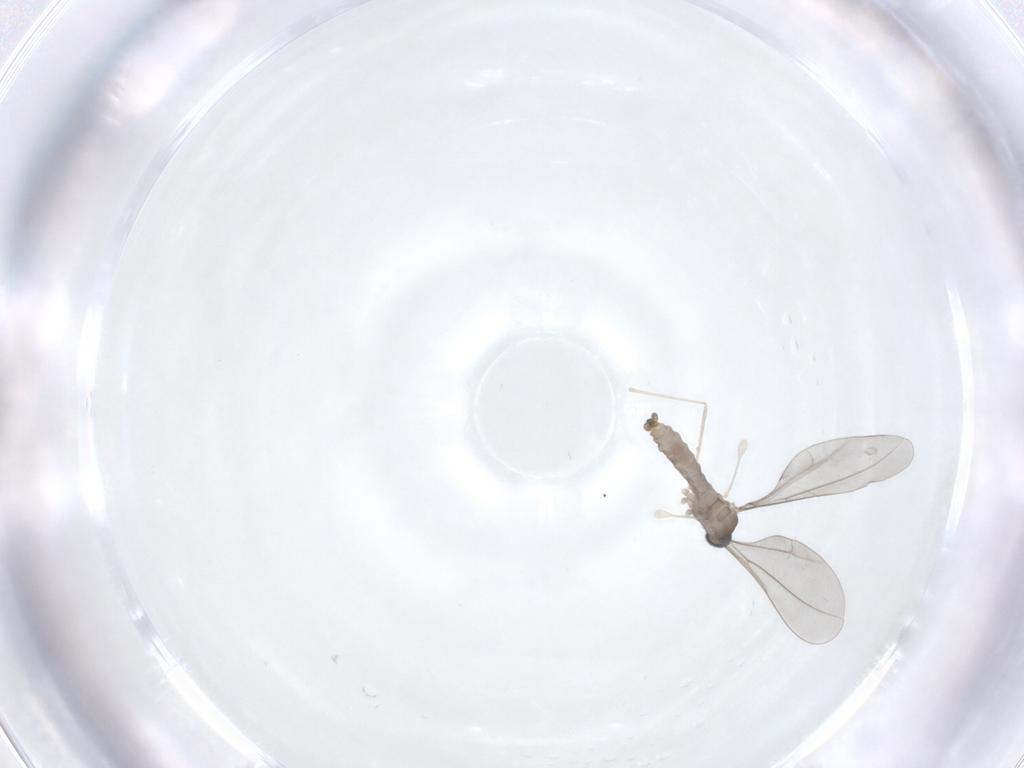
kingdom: Animalia
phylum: Arthropoda
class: Insecta
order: Diptera
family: Cecidomyiidae
